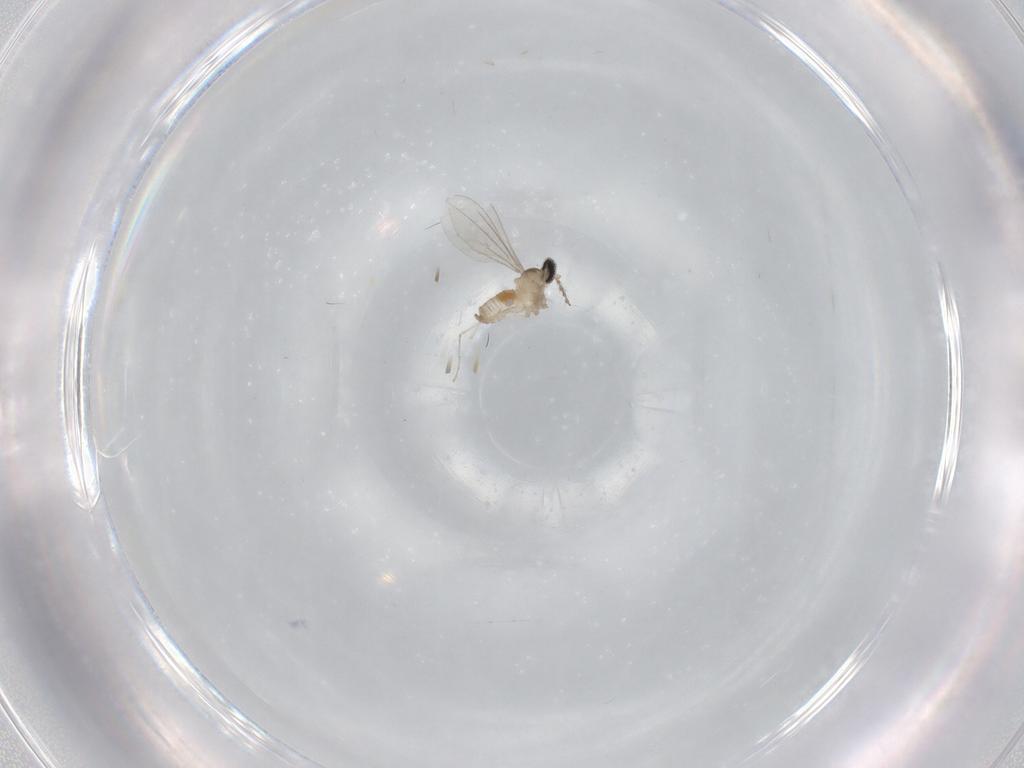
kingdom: Animalia
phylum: Arthropoda
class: Insecta
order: Diptera
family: Cecidomyiidae
